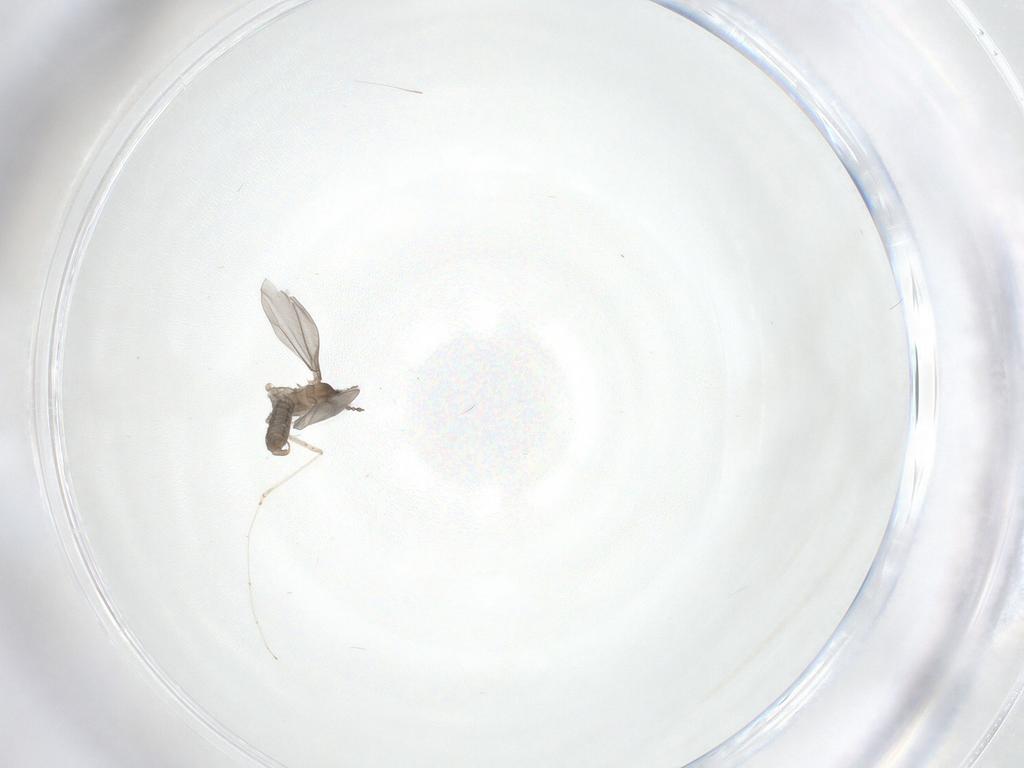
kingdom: Animalia
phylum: Arthropoda
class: Insecta
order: Diptera
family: Cecidomyiidae
